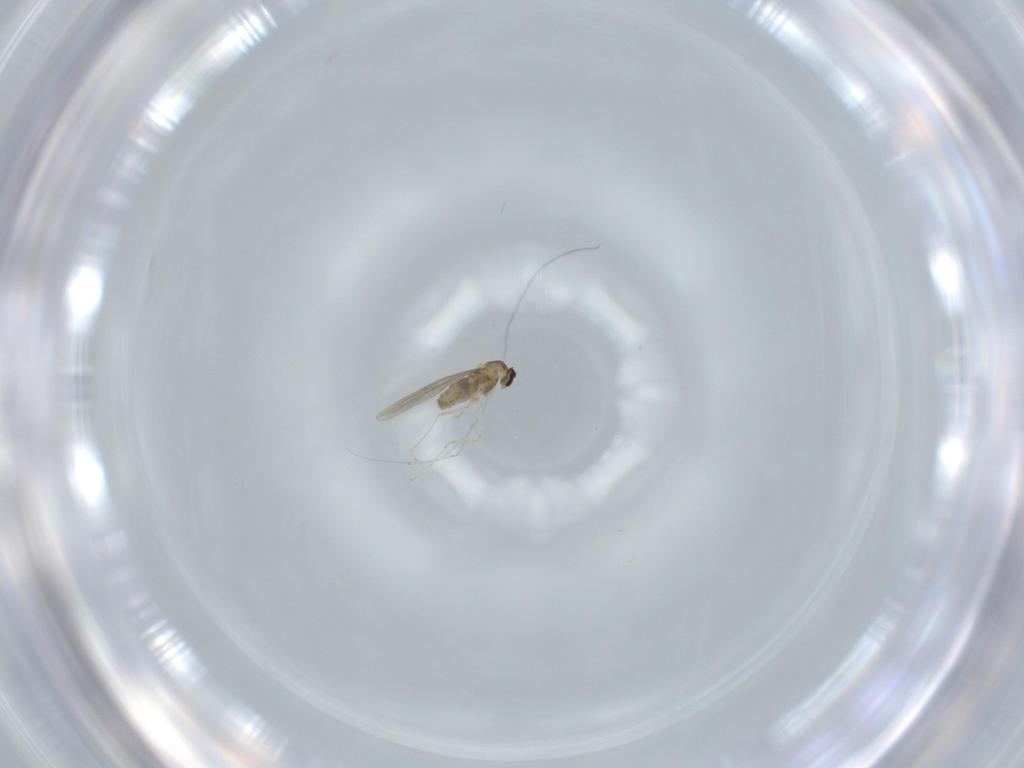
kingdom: Animalia
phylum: Arthropoda
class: Insecta
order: Diptera
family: Cecidomyiidae
